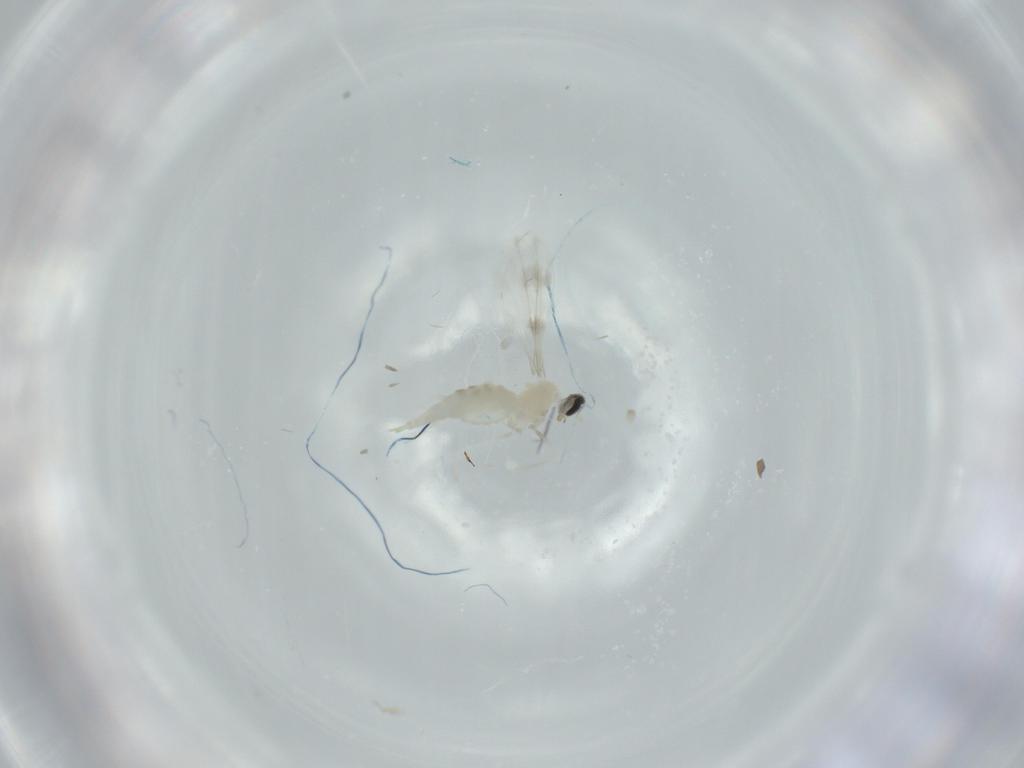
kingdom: Animalia
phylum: Arthropoda
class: Insecta
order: Diptera
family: Cecidomyiidae
